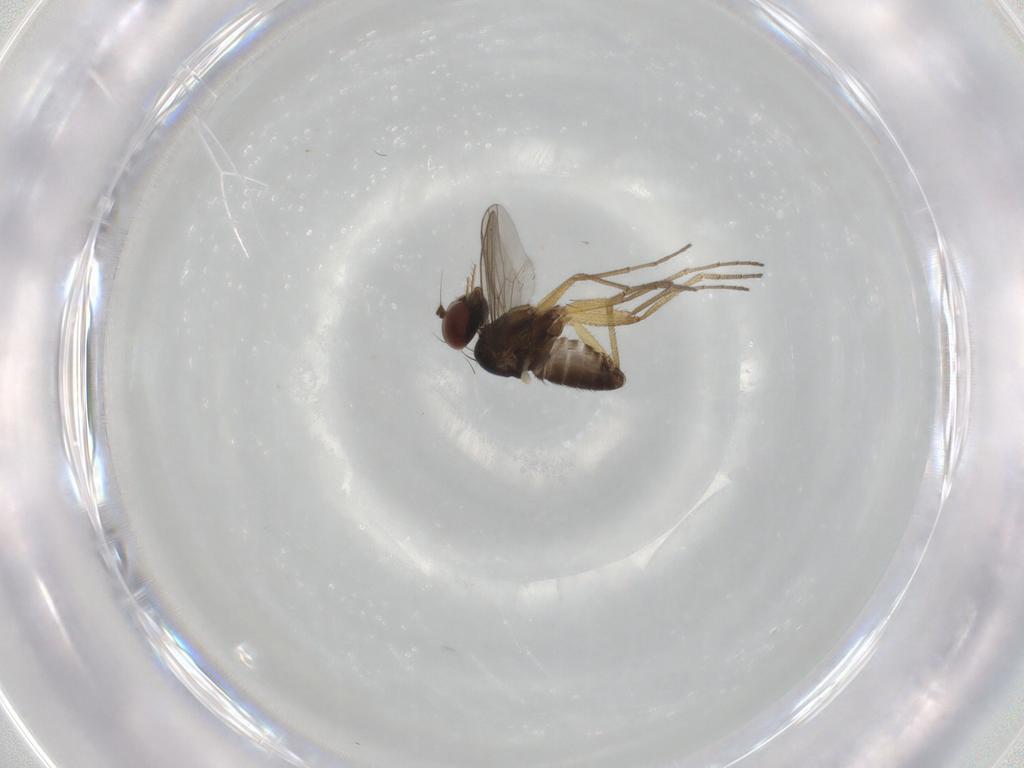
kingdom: Animalia
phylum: Arthropoda
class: Insecta
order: Diptera
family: Dolichopodidae
